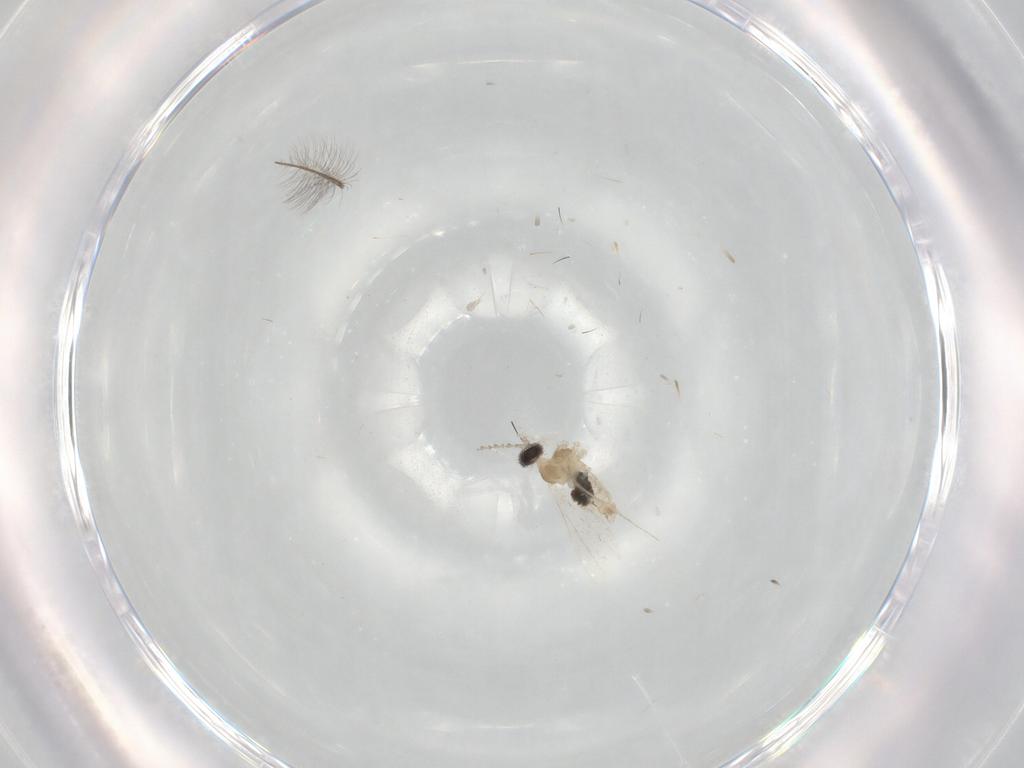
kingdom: Animalia
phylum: Arthropoda
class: Insecta
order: Diptera
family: Cecidomyiidae
